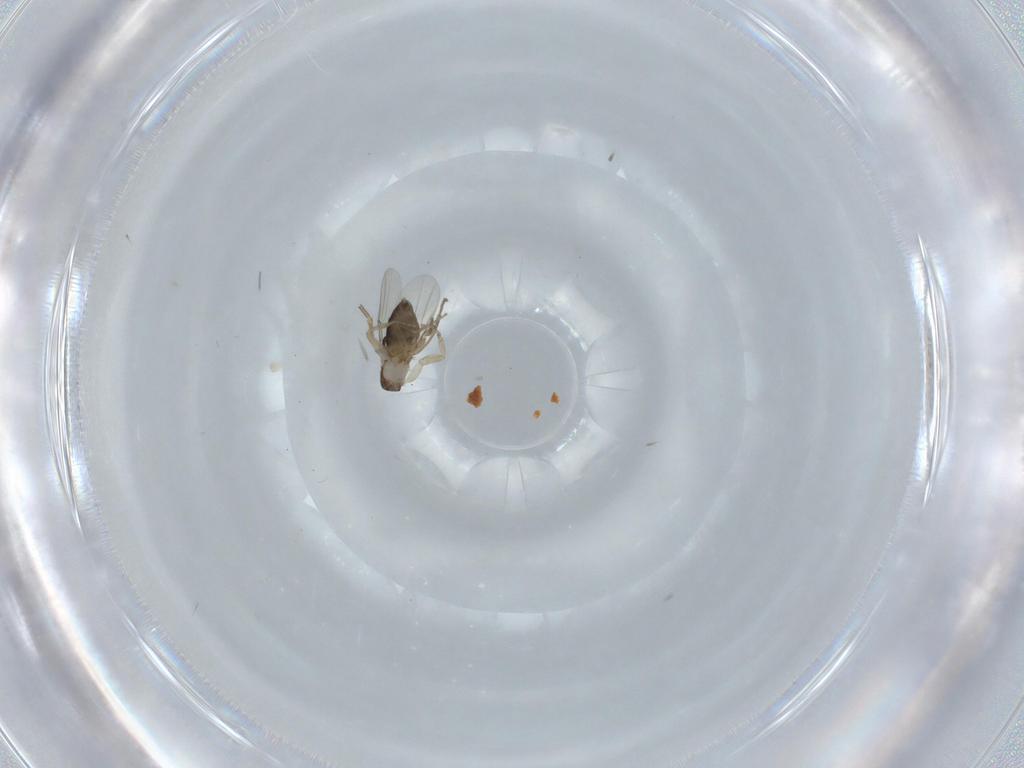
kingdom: Animalia
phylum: Arthropoda
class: Insecta
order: Diptera
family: Phoridae
